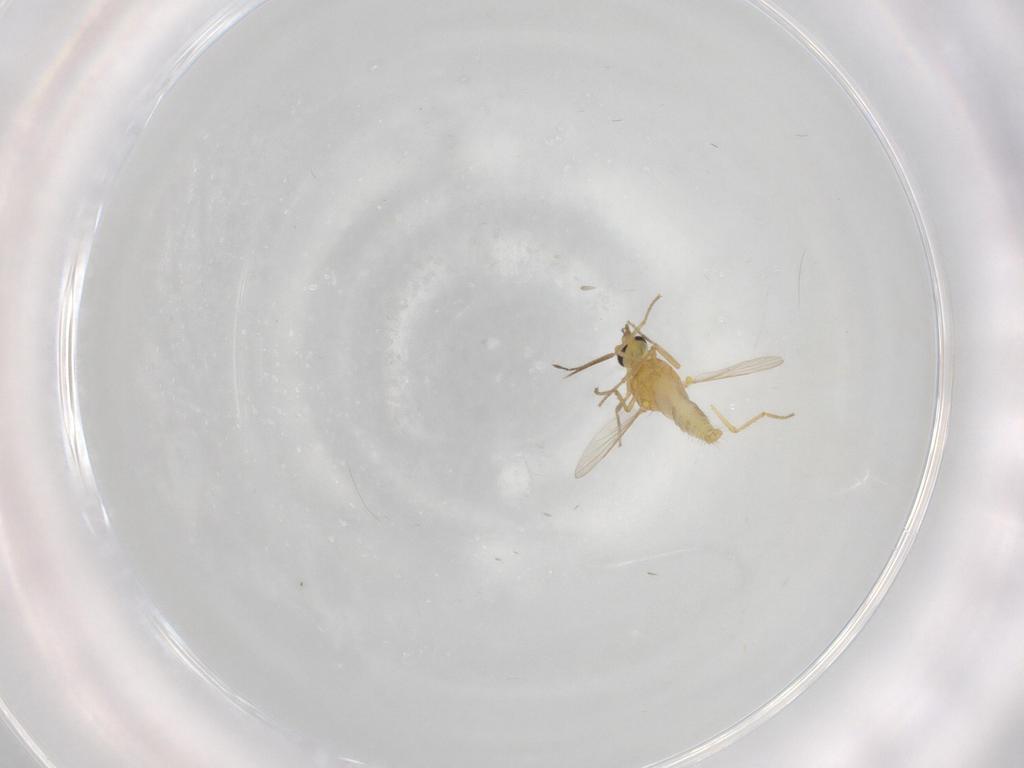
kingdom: Animalia
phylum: Arthropoda
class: Insecta
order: Diptera
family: Ceratopogonidae
